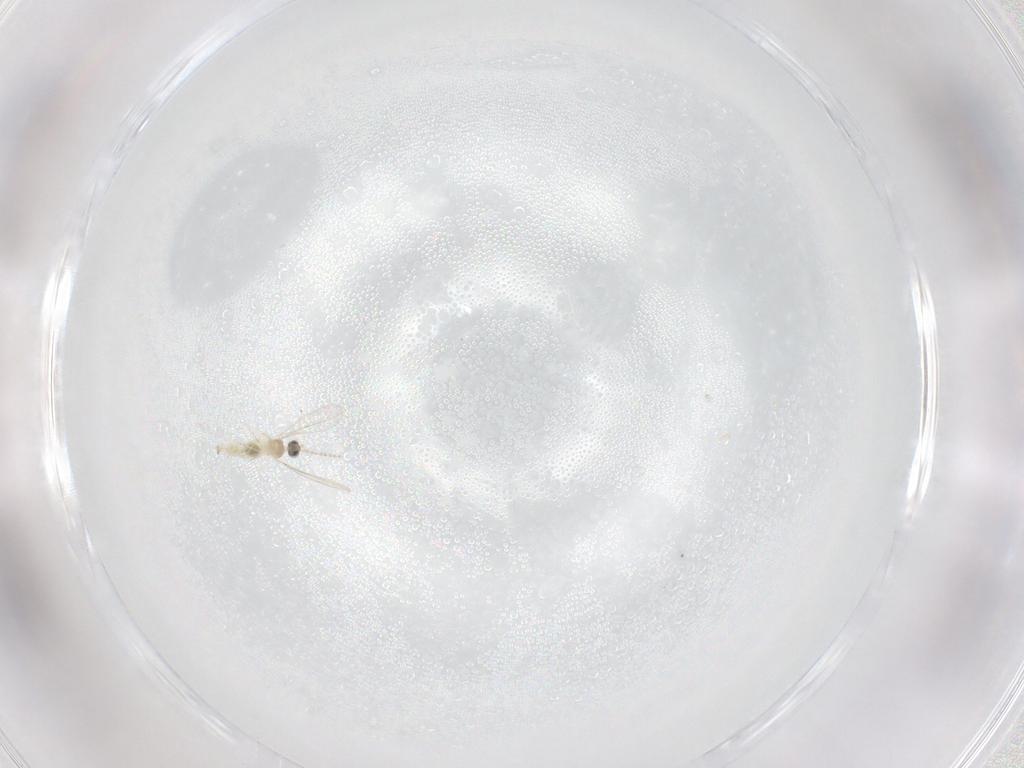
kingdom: Animalia
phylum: Arthropoda
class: Insecta
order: Diptera
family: Cecidomyiidae
